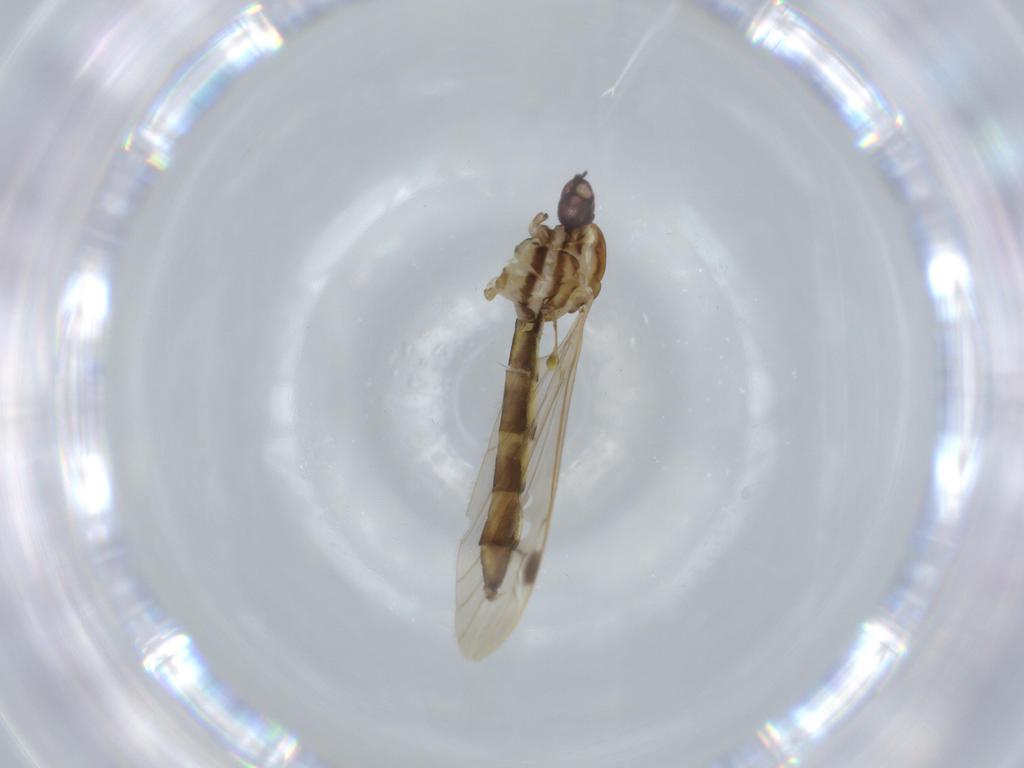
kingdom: Animalia
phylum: Arthropoda
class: Insecta
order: Diptera
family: Limoniidae
